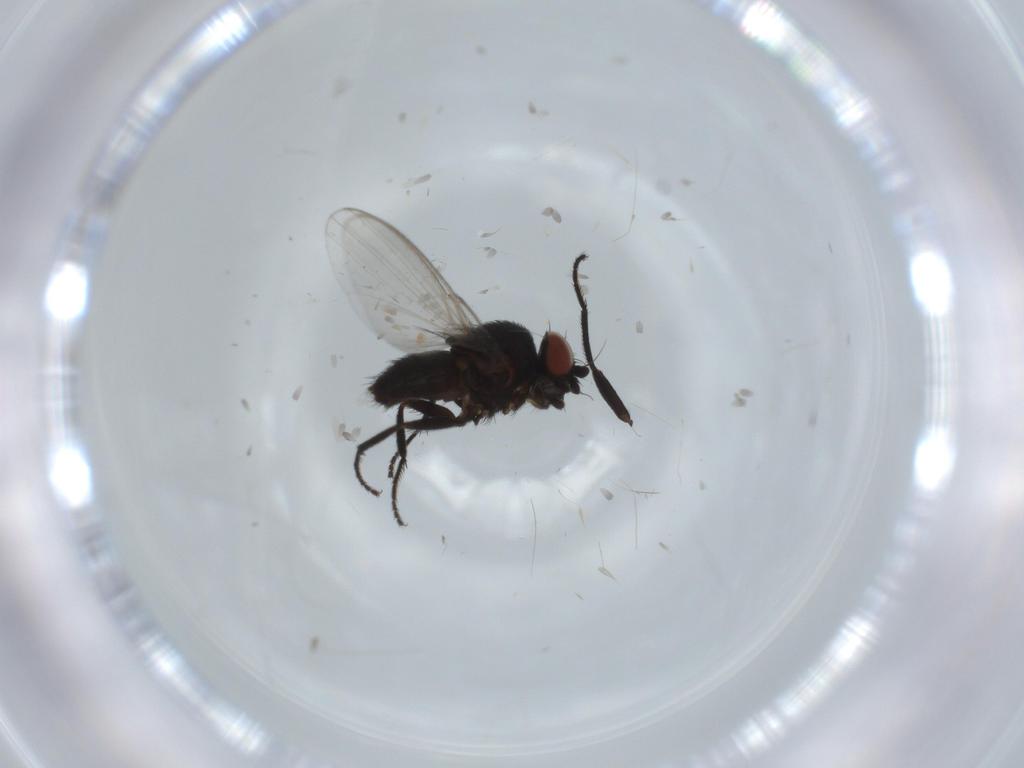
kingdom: Animalia
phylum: Arthropoda
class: Insecta
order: Diptera
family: Milichiidae
